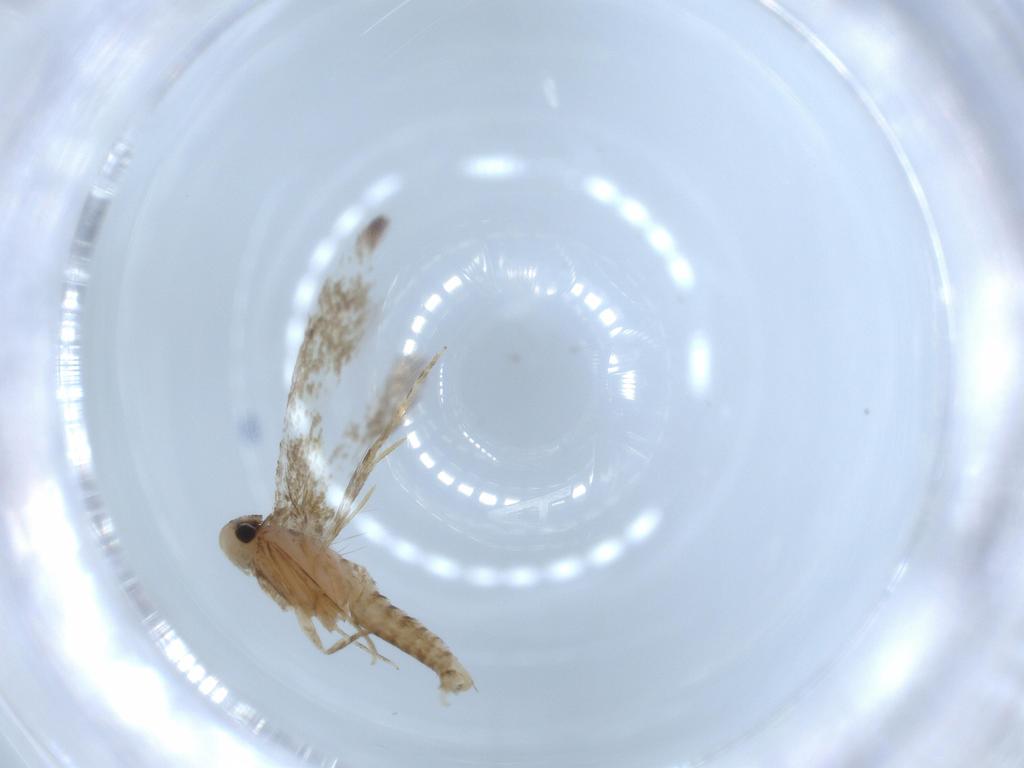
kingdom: Animalia
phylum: Arthropoda
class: Insecta
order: Lepidoptera
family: Tineidae
